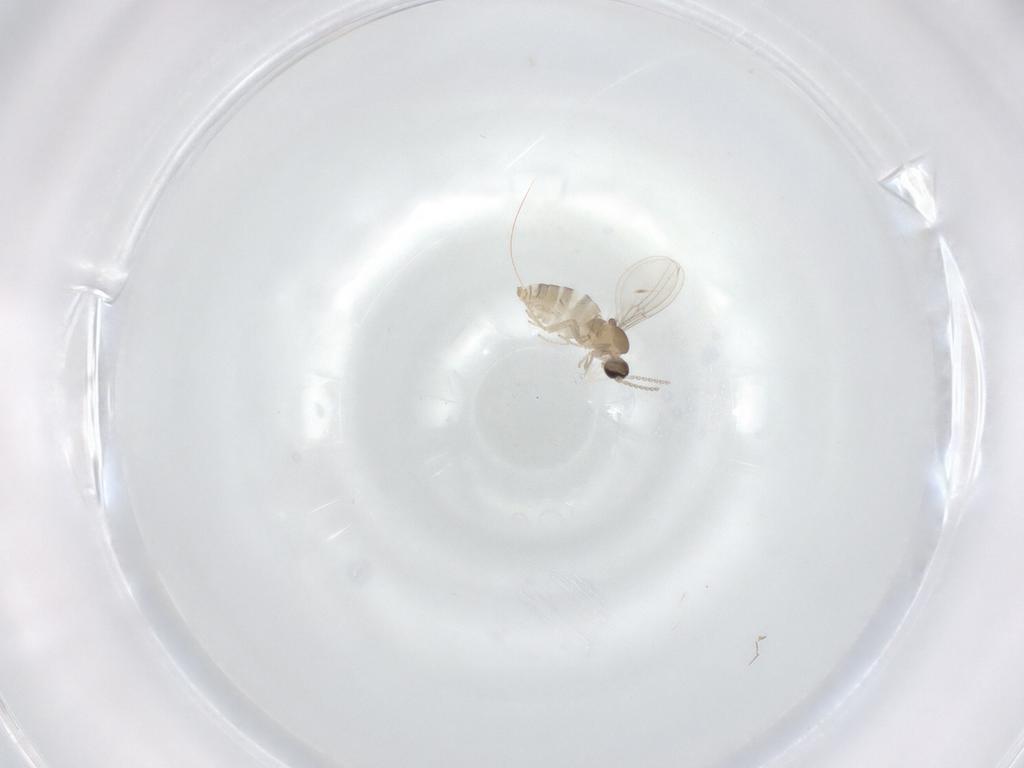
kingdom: Animalia
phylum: Arthropoda
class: Insecta
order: Diptera
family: Cecidomyiidae
